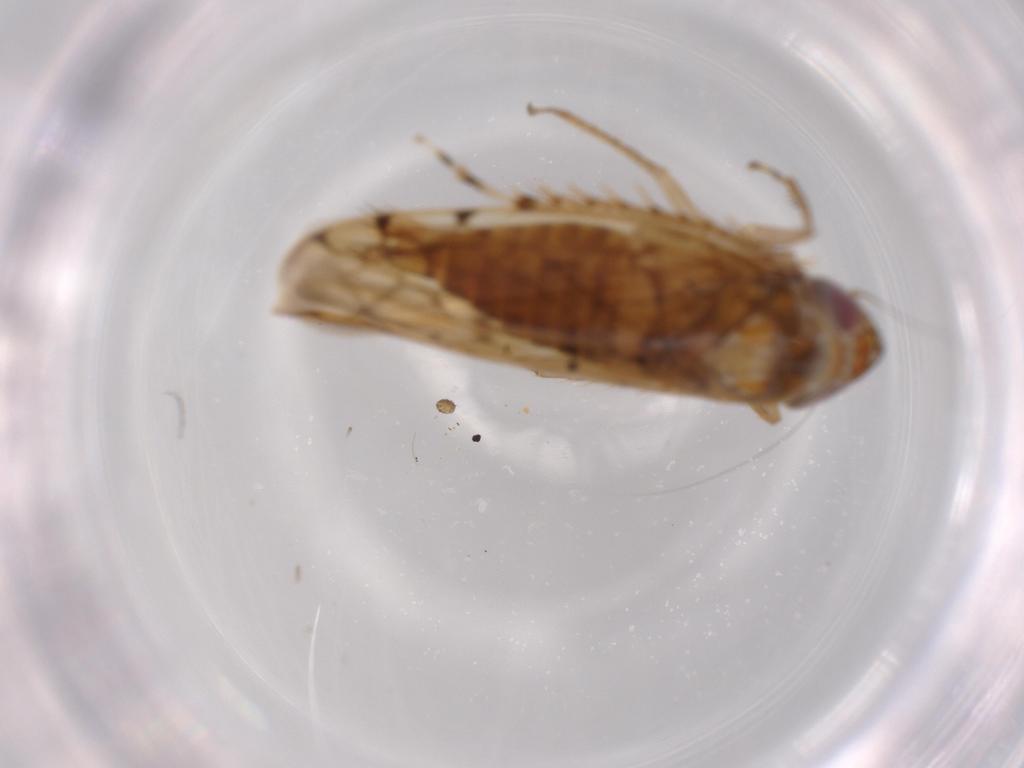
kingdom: Animalia
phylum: Arthropoda
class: Insecta
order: Hemiptera
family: Cicadellidae
